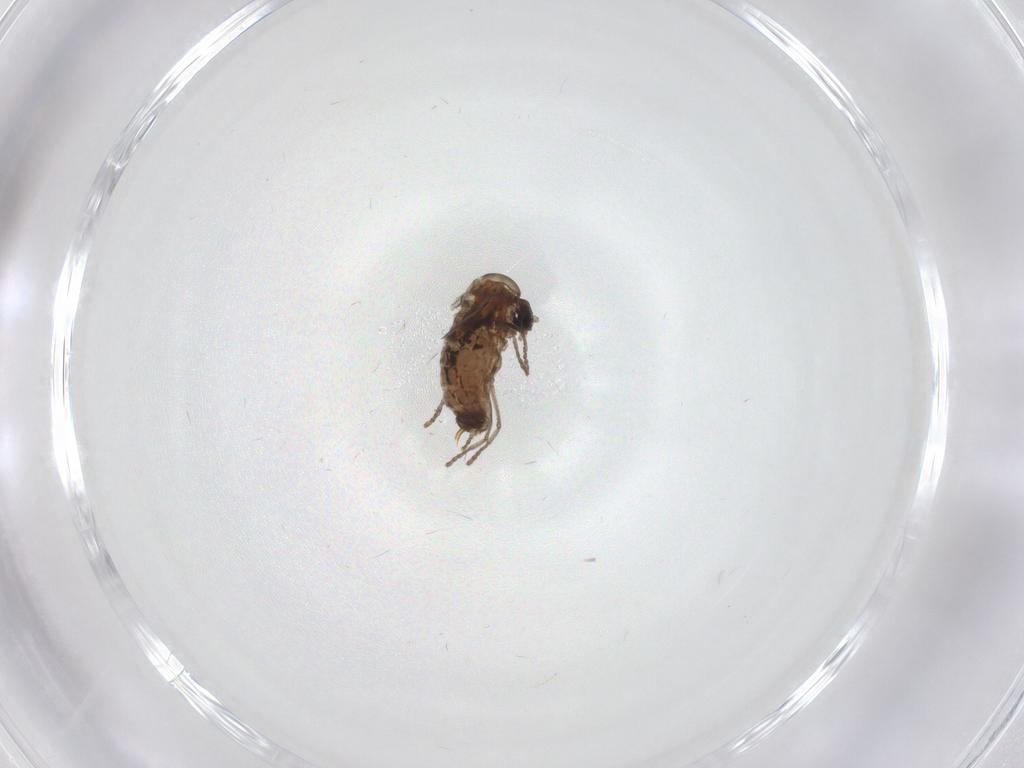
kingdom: Animalia
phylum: Arthropoda
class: Insecta
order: Diptera
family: Psychodidae
